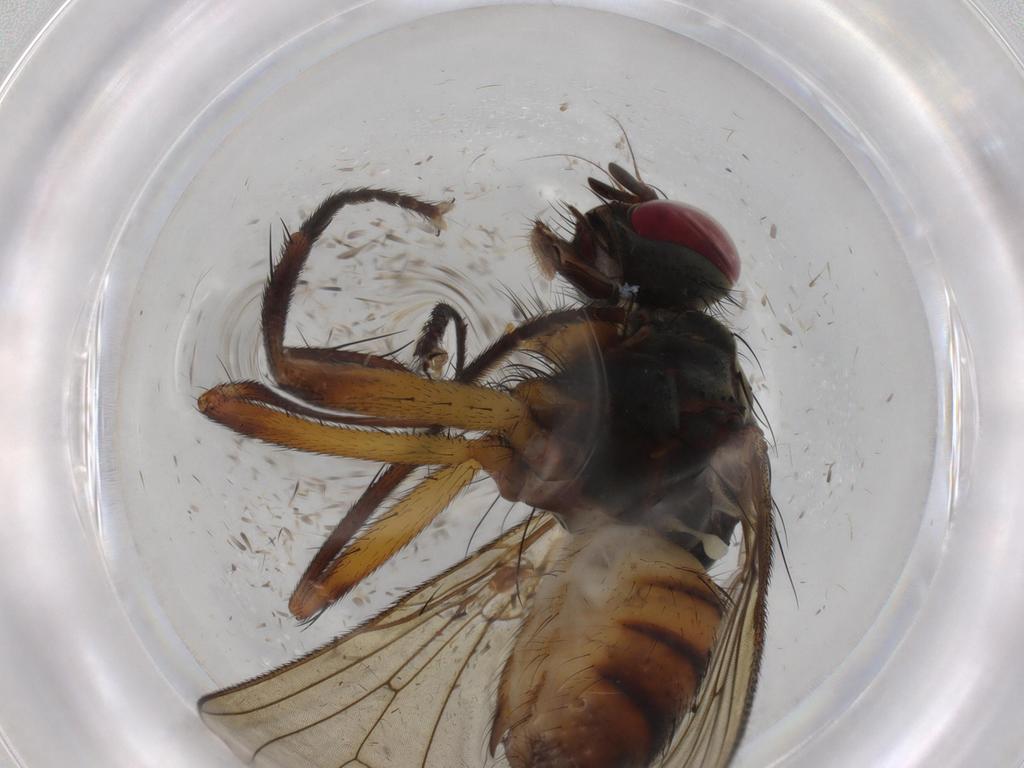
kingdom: Animalia
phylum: Arthropoda
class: Insecta
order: Diptera
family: Muscidae
